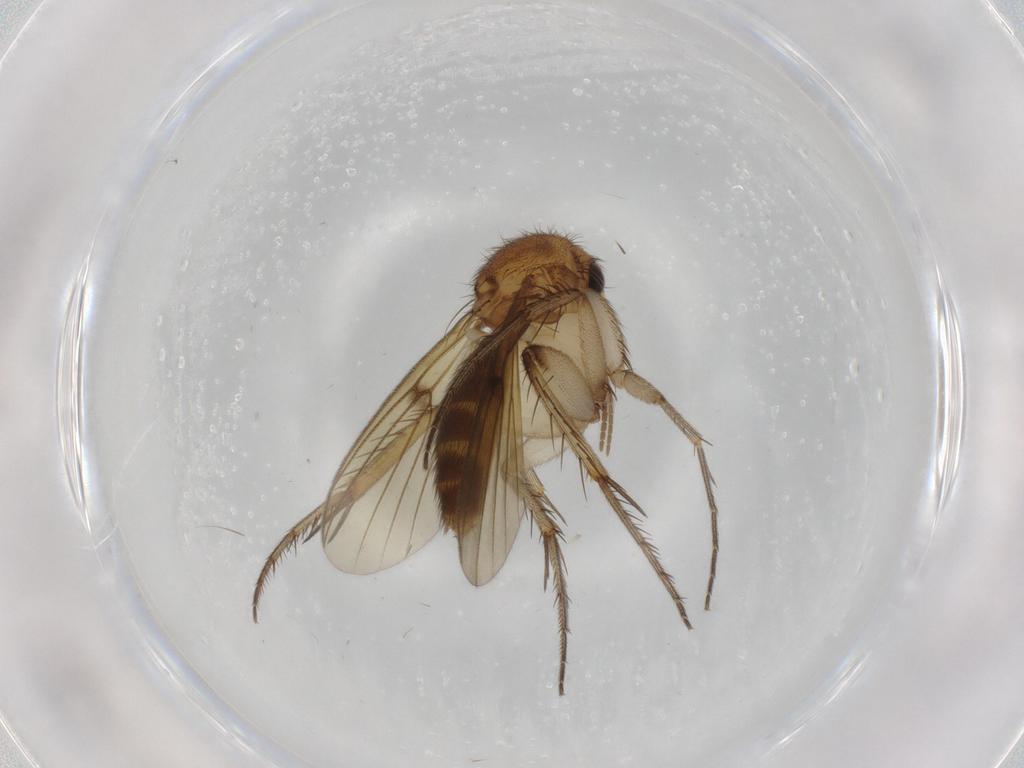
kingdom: Animalia
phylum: Arthropoda
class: Insecta
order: Diptera
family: Mycetophilidae
